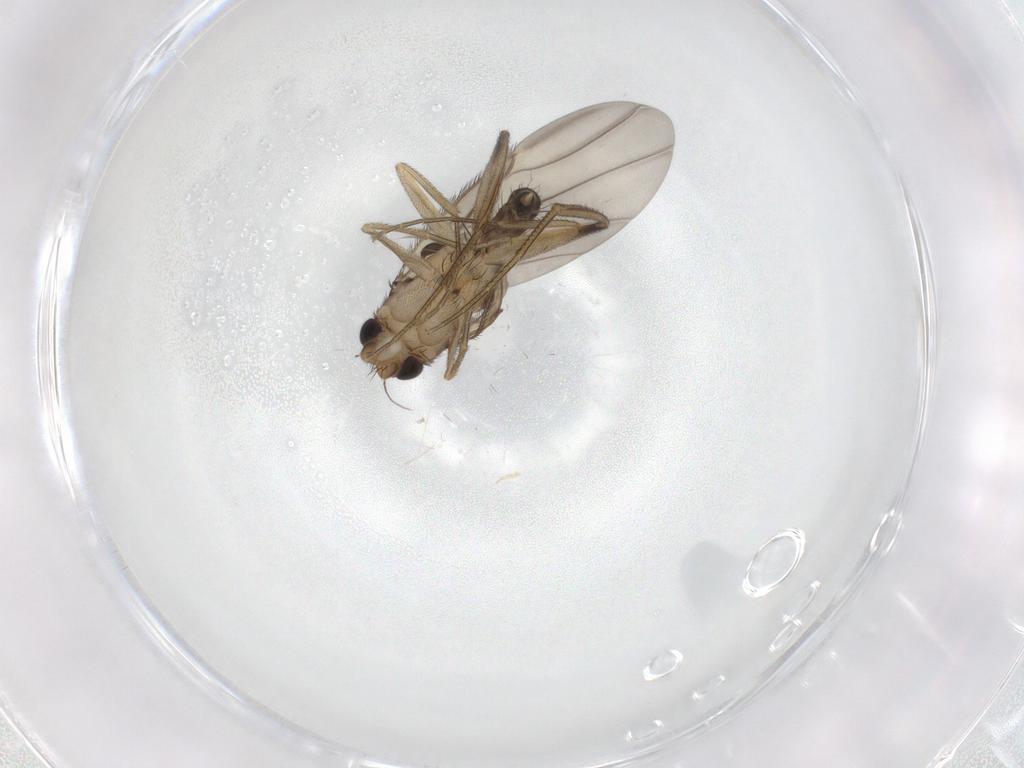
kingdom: Animalia
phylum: Arthropoda
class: Insecta
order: Diptera
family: Phoridae
